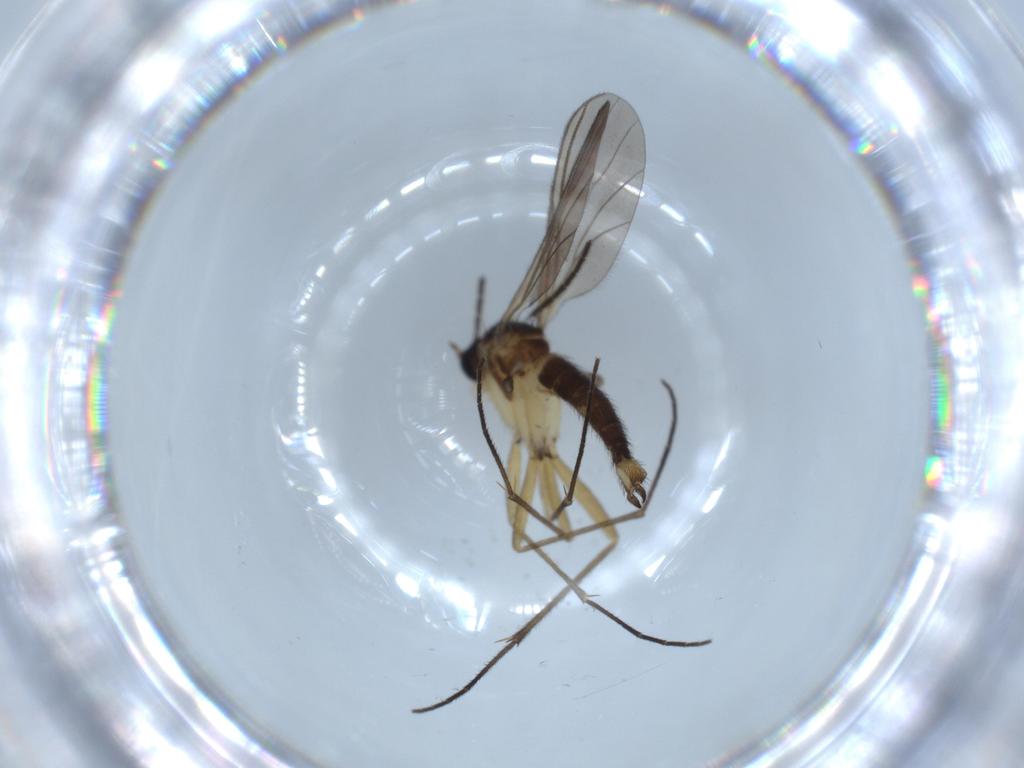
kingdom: Animalia
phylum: Arthropoda
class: Insecta
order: Diptera
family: Sciaridae
